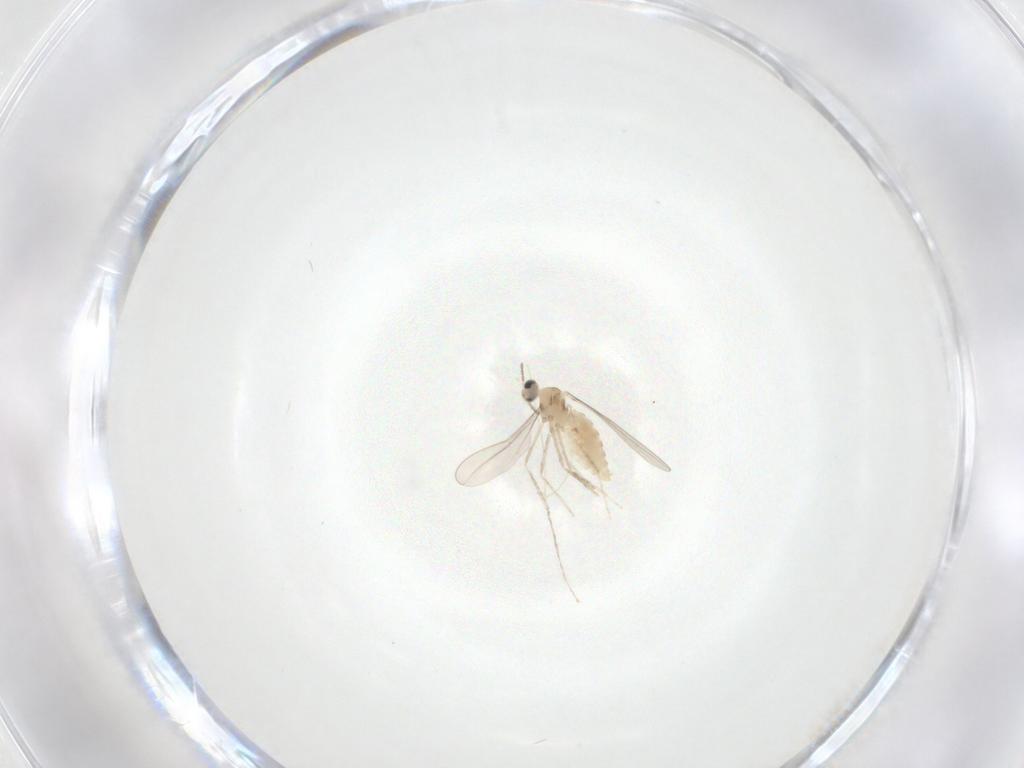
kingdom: Animalia
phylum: Arthropoda
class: Insecta
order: Diptera
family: Cecidomyiidae
